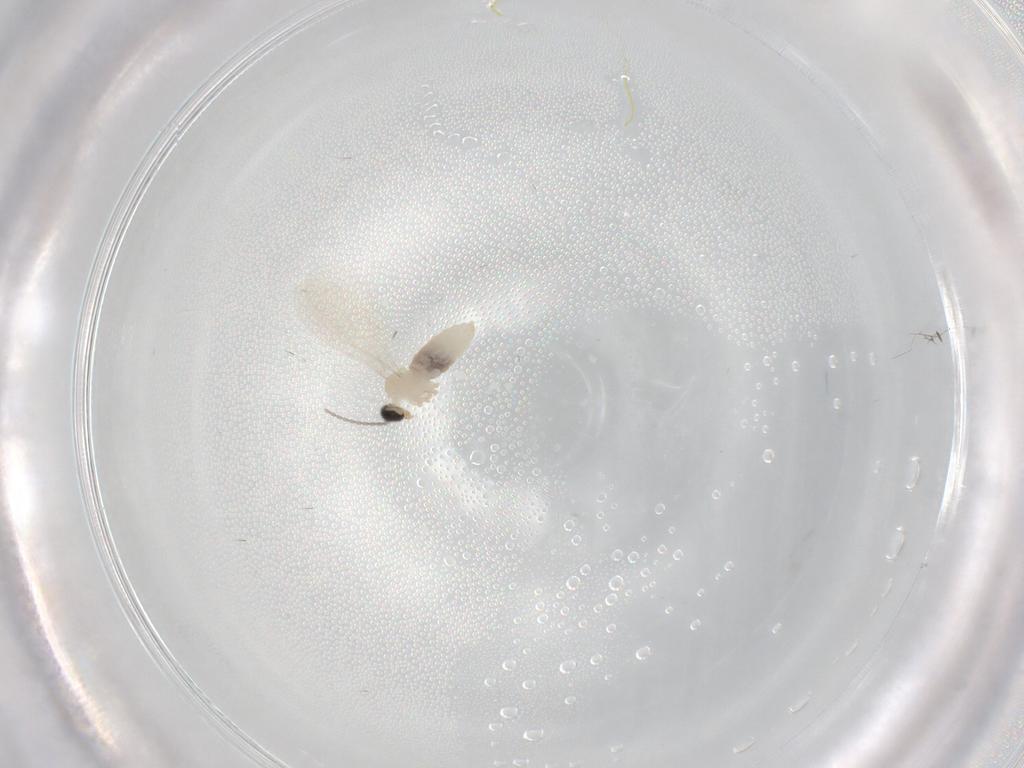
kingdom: Animalia
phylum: Arthropoda
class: Insecta
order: Diptera
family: Cecidomyiidae
